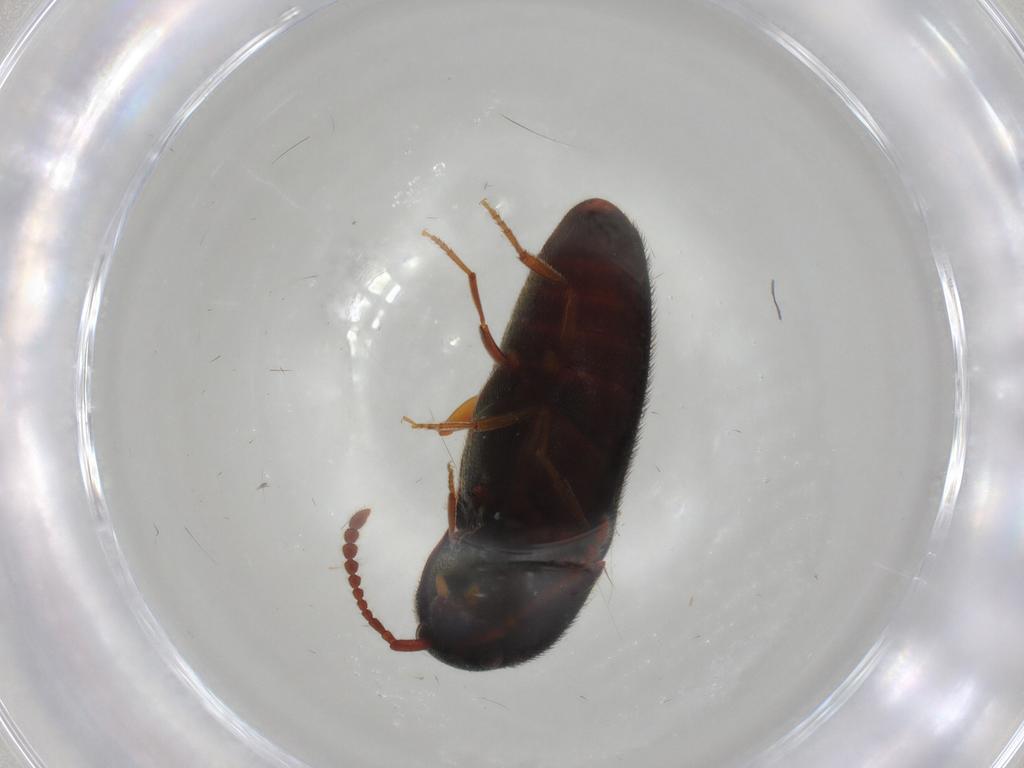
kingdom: Animalia
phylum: Arthropoda
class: Insecta
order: Coleoptera
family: Eucnemidae
